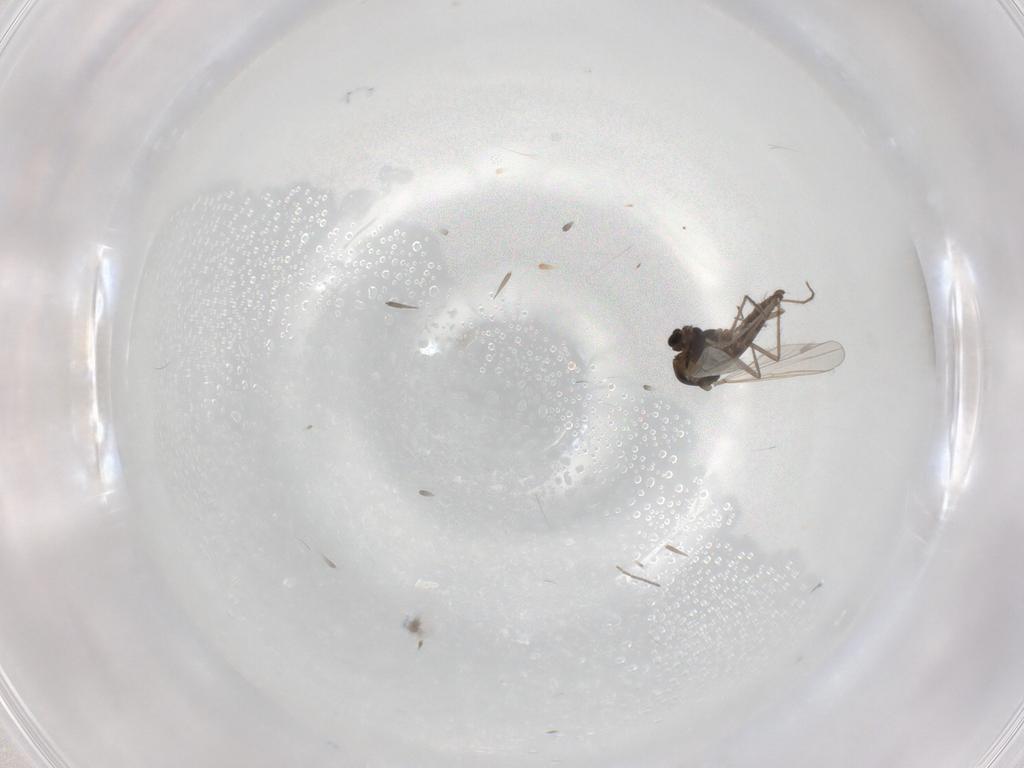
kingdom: Animalia
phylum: Arthropoda
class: Insecta
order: Diptera
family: Chironomidae
